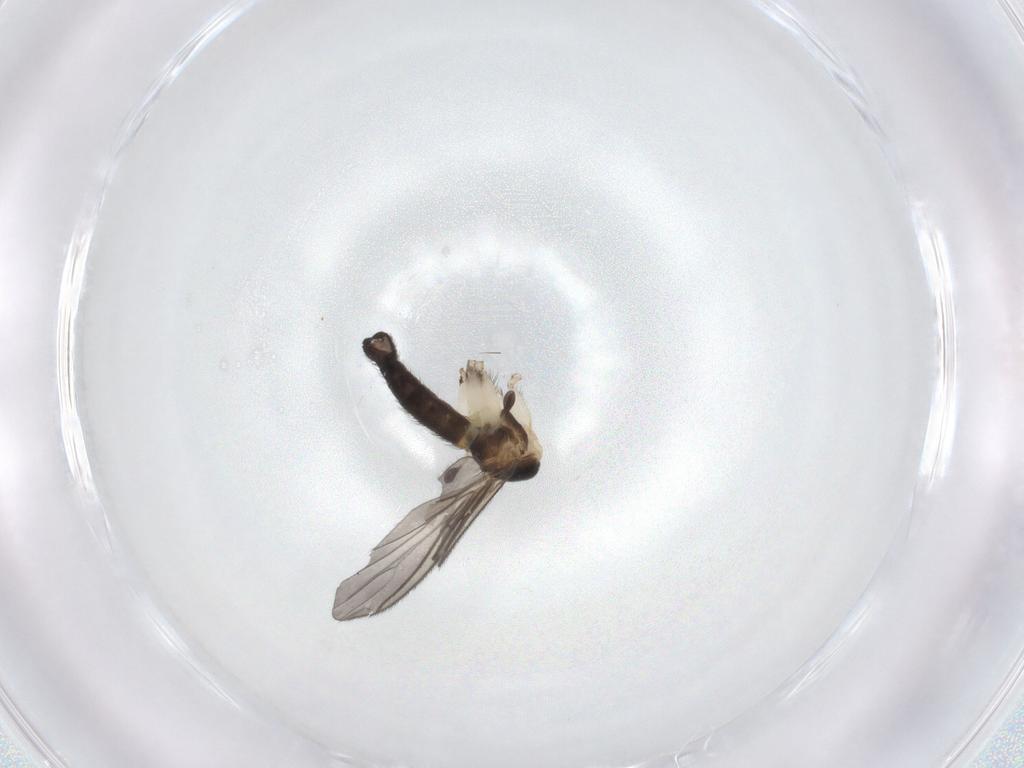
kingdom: Animalia
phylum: Arthropoda
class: Insecta
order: Diptera
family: Sciaridae
